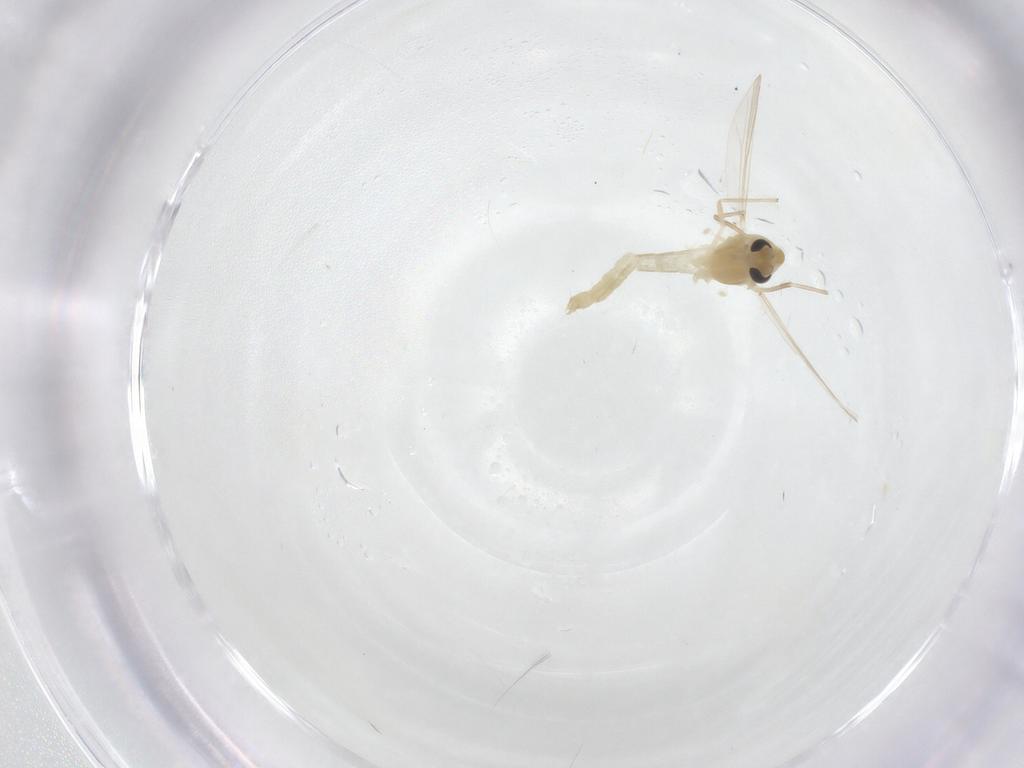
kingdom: Animalia
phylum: Arthropoda
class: Insecta
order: Diptera
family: Chironomidae
